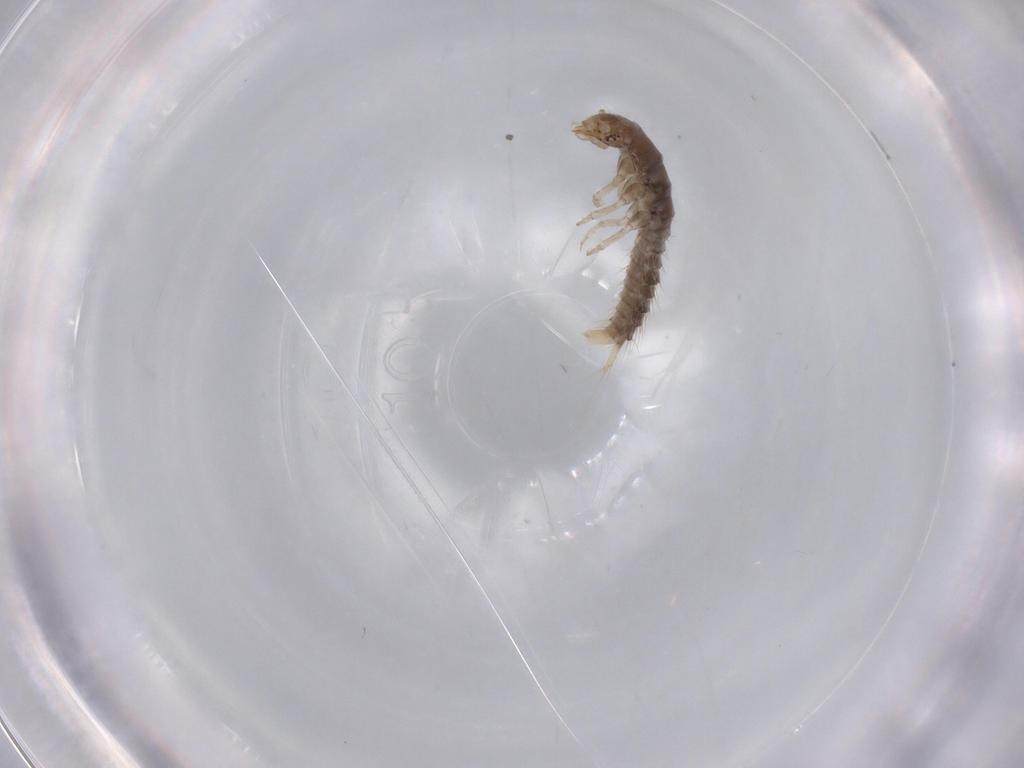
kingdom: Animalia
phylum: Arthropoda
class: Insecta
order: Coleoptera
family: Staphylinidae
